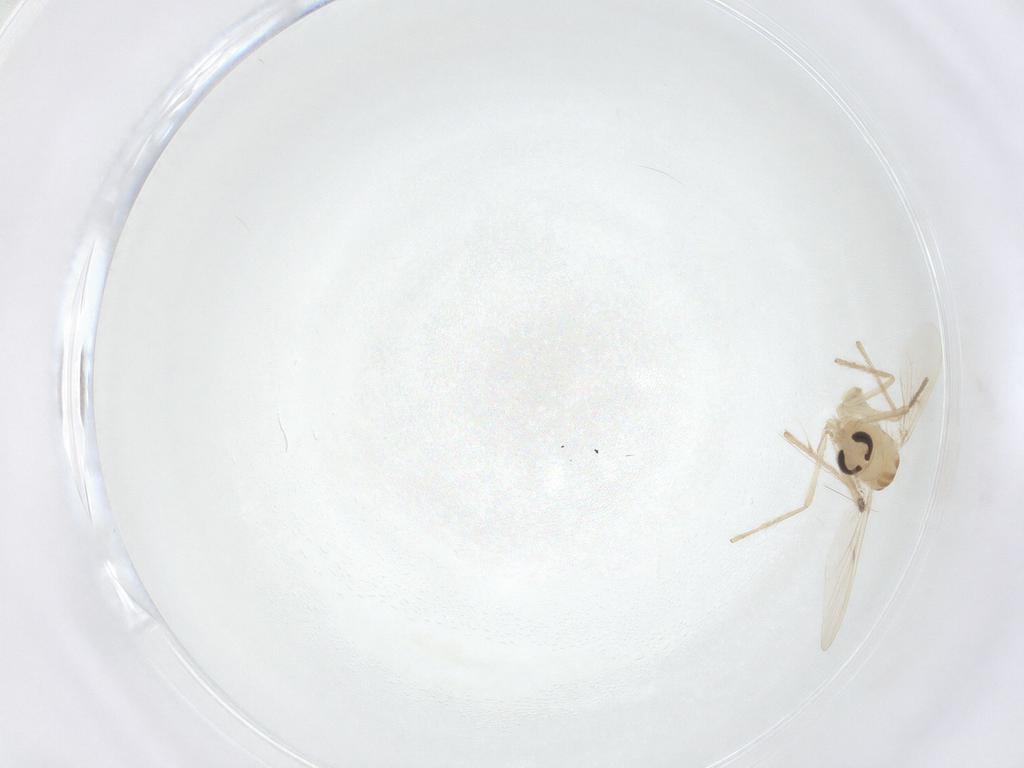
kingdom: Animalia
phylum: Arthropoda
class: Insecta
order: Diptera
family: Chironomidae
